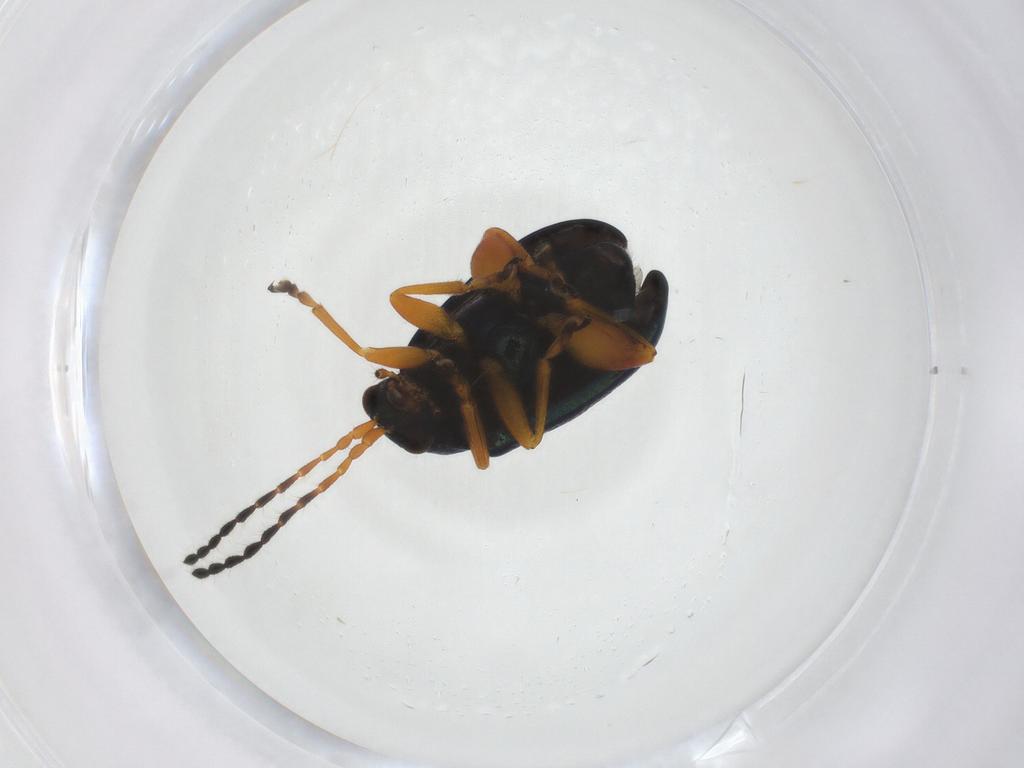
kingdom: Animalia
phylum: Arthropoda
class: Insecta
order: Coleoptera
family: Chrysomelidae
